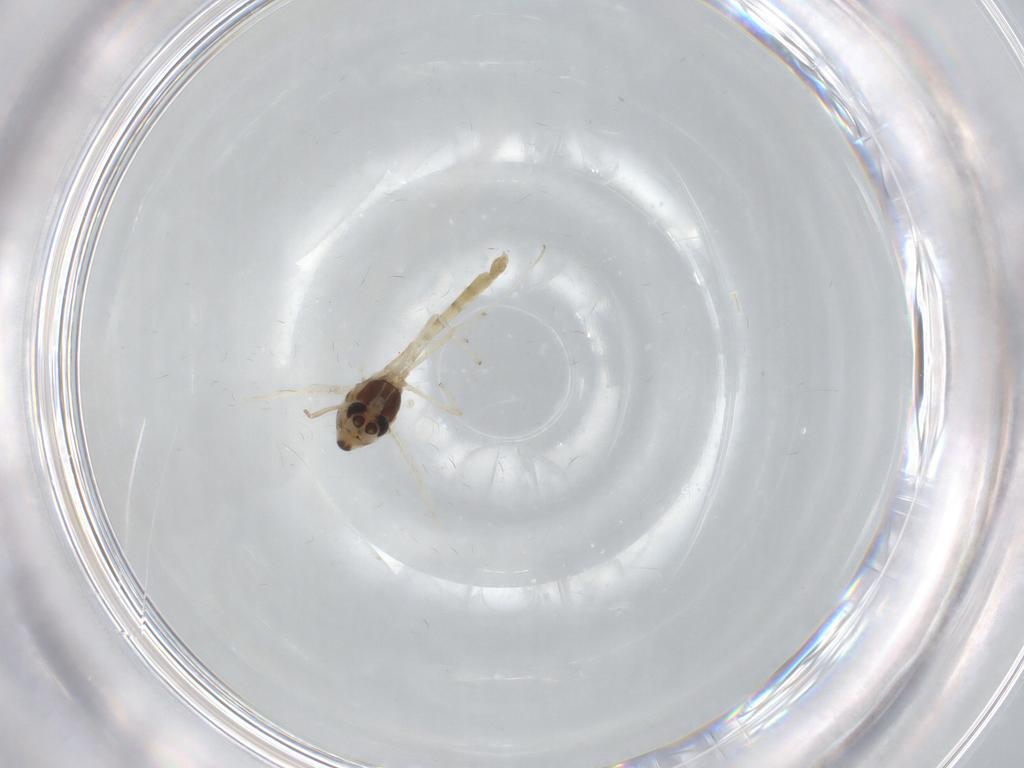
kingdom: Animalia
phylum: Arthropoda
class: Insecta
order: Diptera
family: Chironomidae
